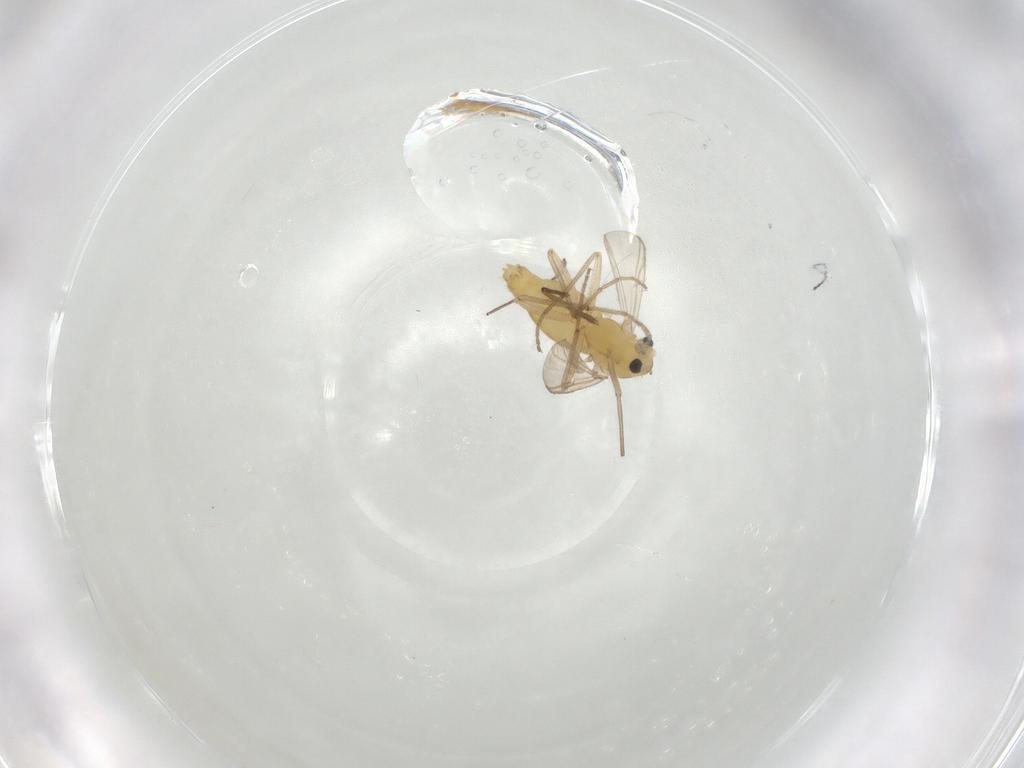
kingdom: Animalia
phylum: Arthropoda
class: Insecta
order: Diptera
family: Chironomidae
